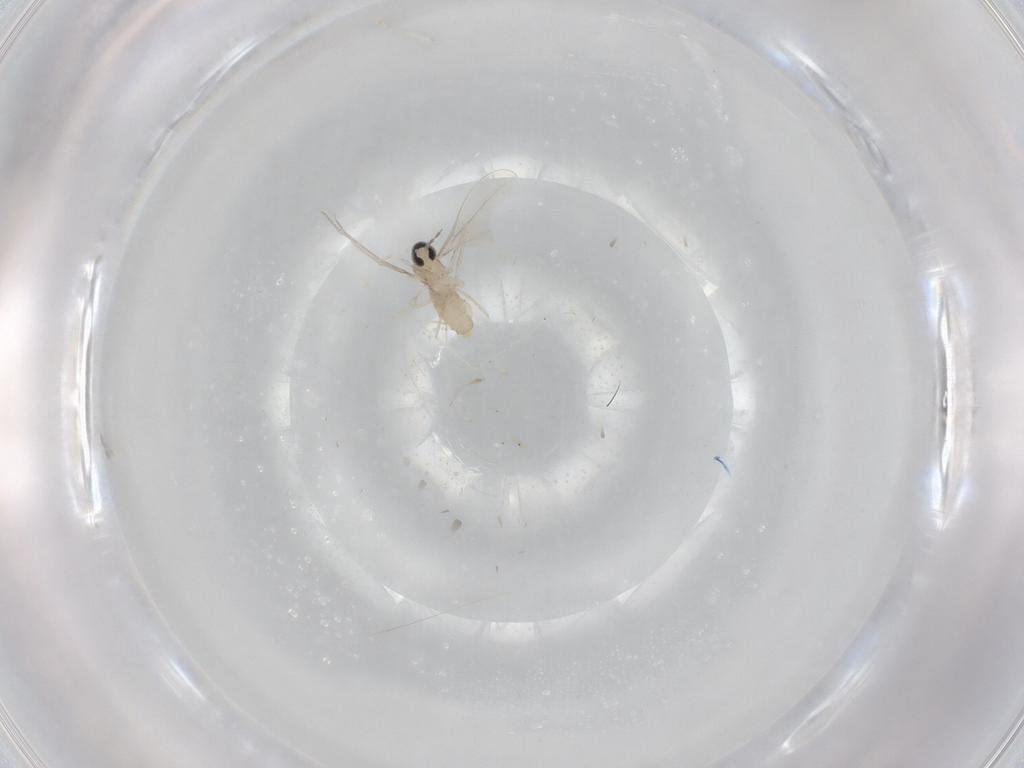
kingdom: Animalia
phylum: Arthropoda
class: Insecta
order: Diptera
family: Cecidomyiidae
